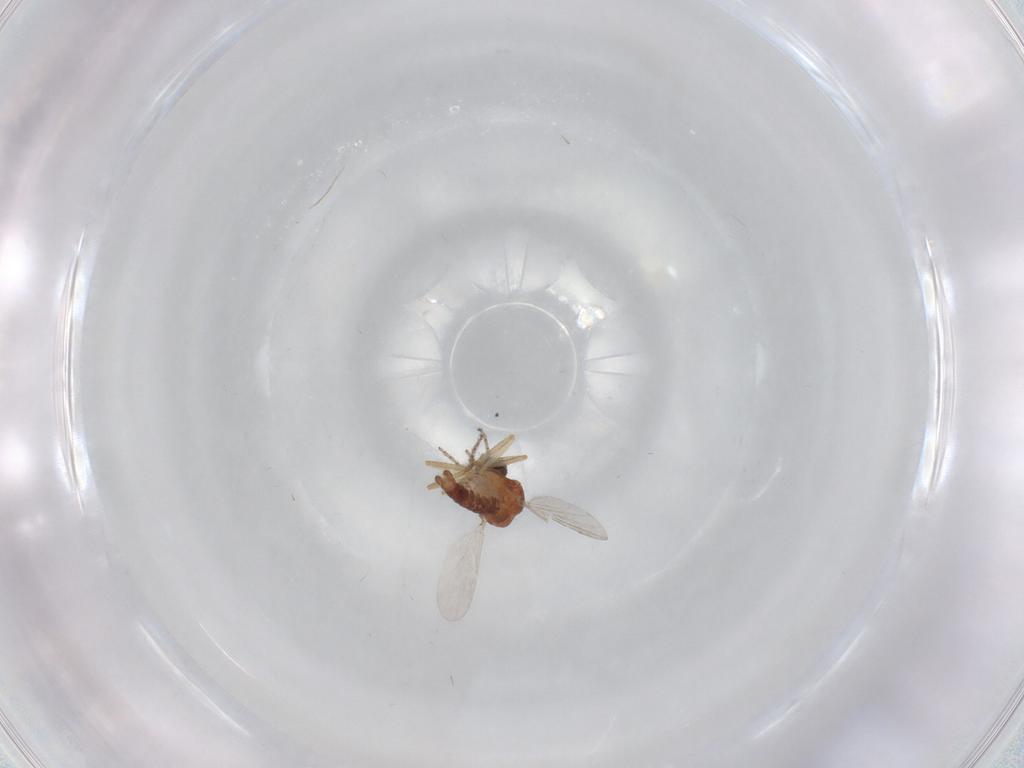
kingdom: Animalia
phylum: Arthropoda
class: Insecta
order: Diptera
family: Ceratopogonidae
